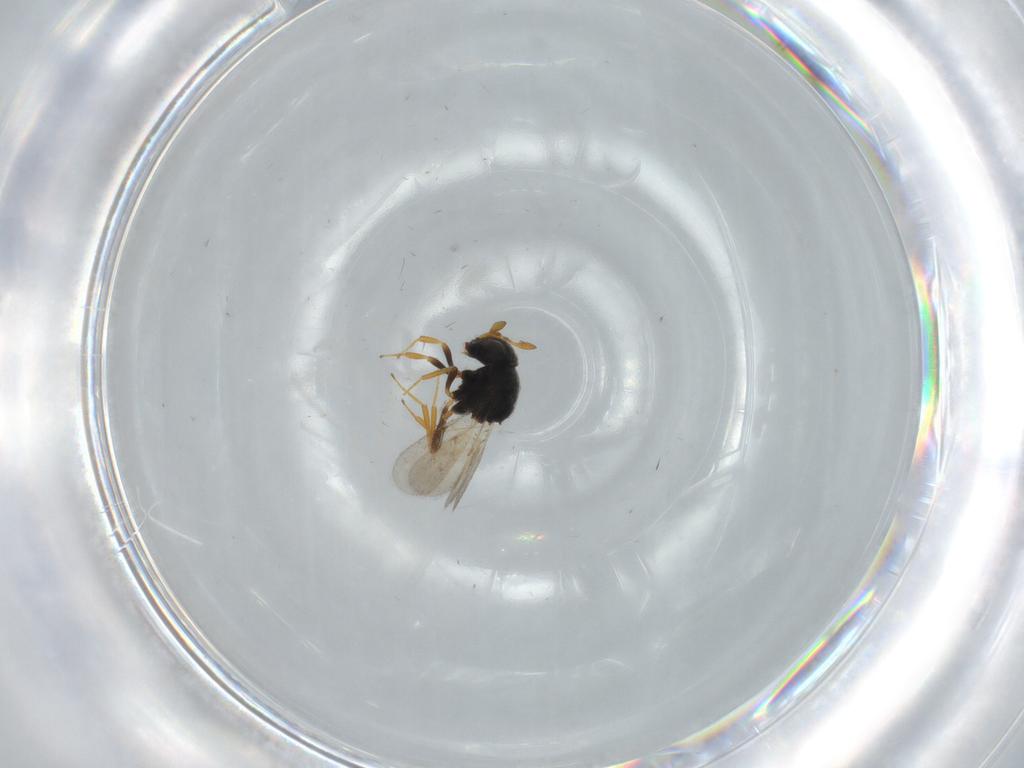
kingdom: Animalia
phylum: Arthropoda
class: Insecta
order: Hymenoptera
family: Scelionidae
